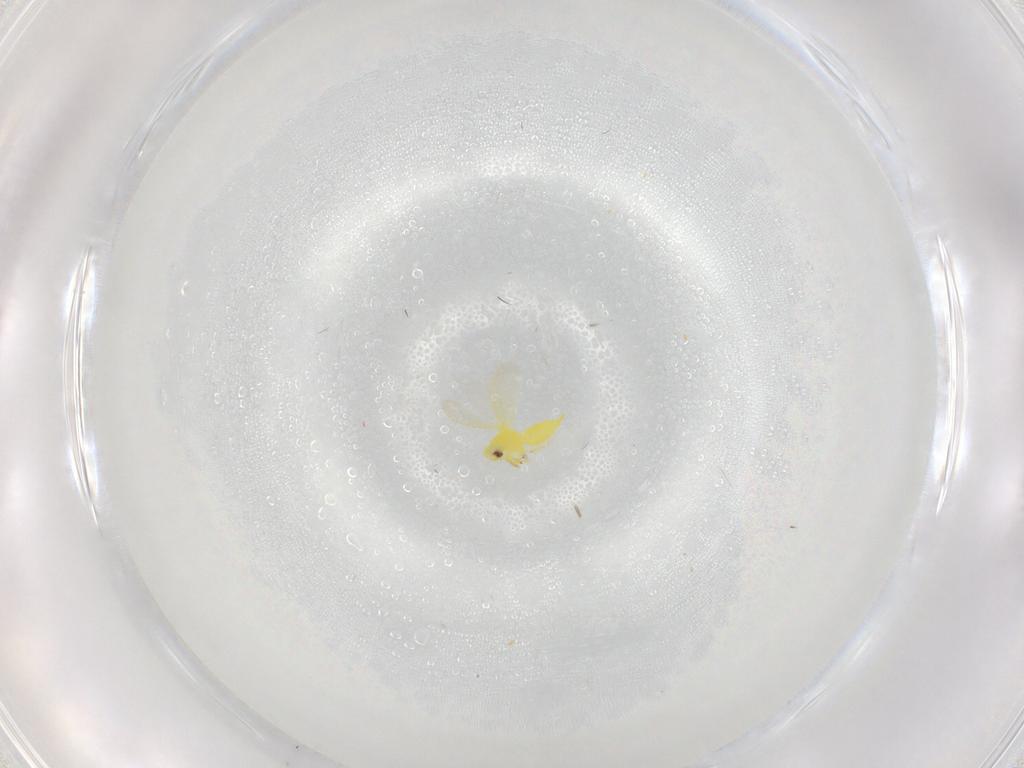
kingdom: Animalia
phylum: Arthropoda
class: Insecta
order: Hemiptera
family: Aleyrodidae
